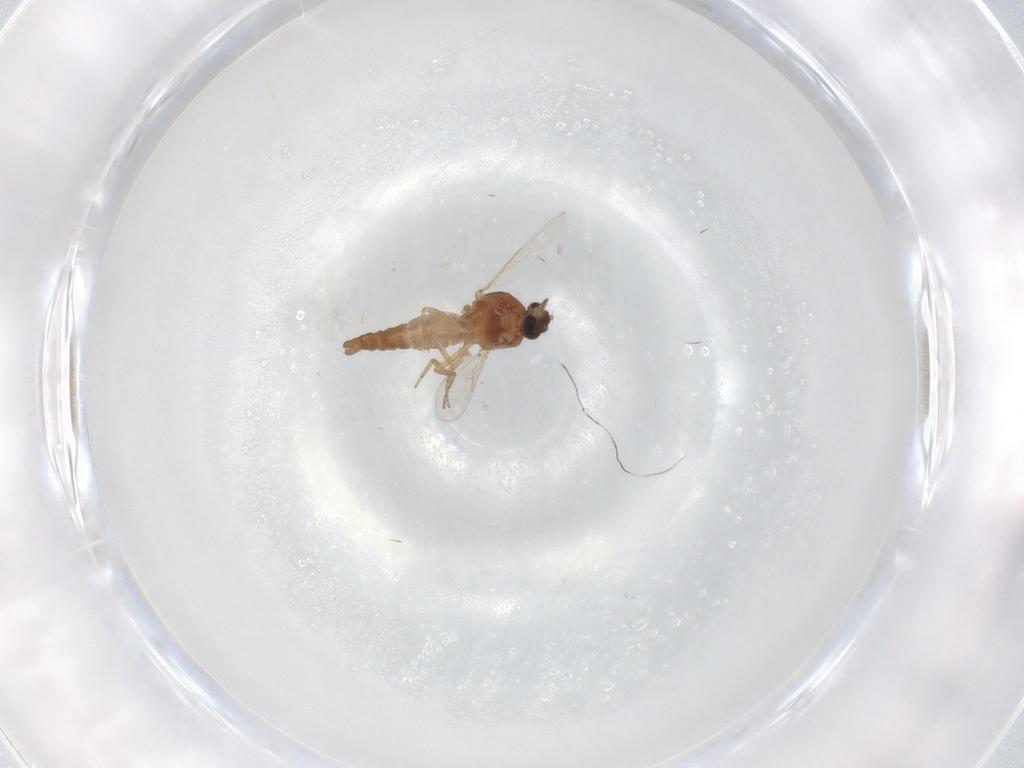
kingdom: Animalia
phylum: Arthropoda
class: Insecta
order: Diptera
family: Ceratopogonidae
